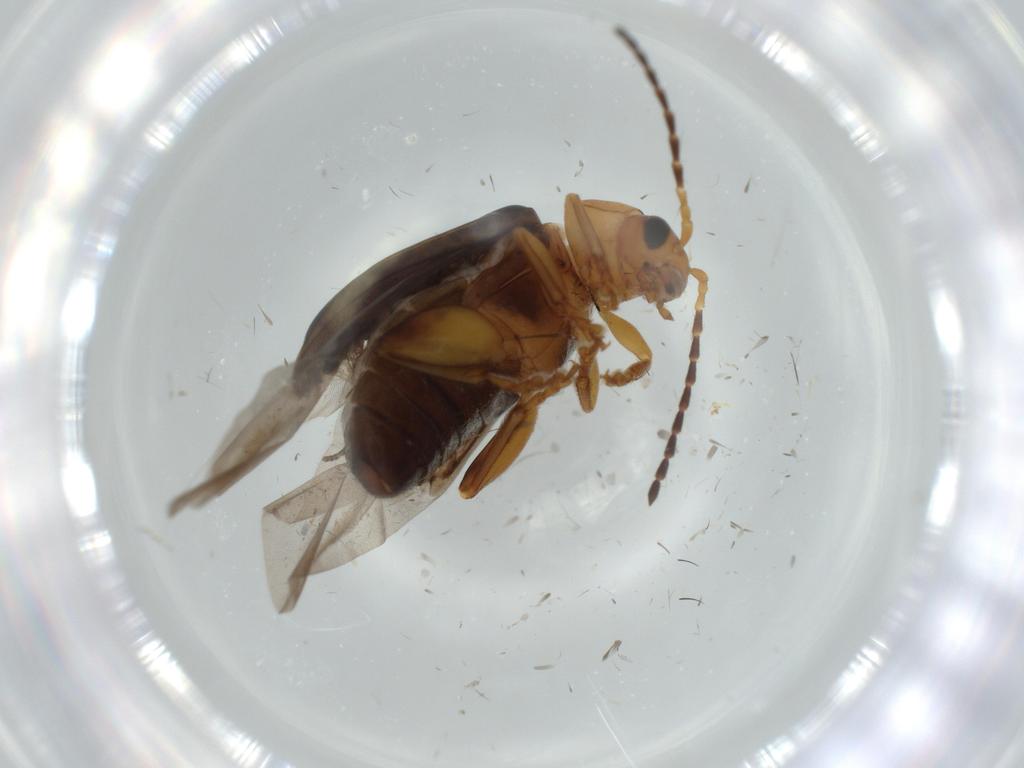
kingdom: Animalia
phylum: Arthropoda
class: Insecta
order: Coleoptera
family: Chrysomelidae
